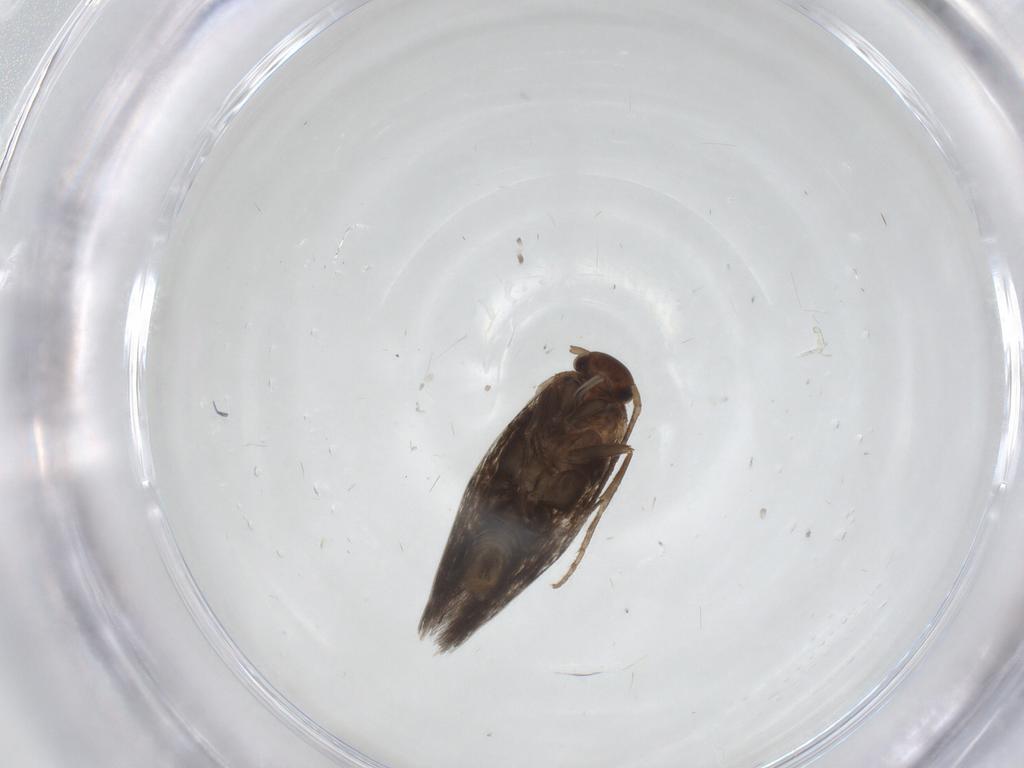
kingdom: Animalia
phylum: Arthropoda
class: Insecta
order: Lepidoptera
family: Elachistidae
